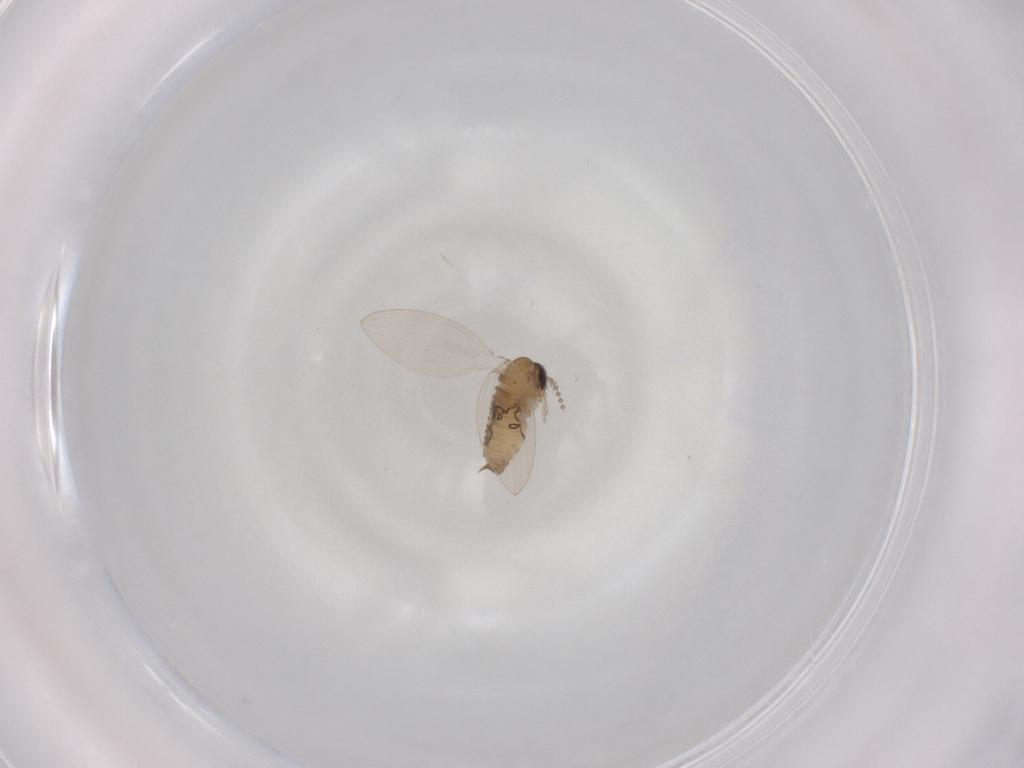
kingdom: Animalia
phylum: Arthropoda
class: Insecta
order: Diptera
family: Psychodidae
